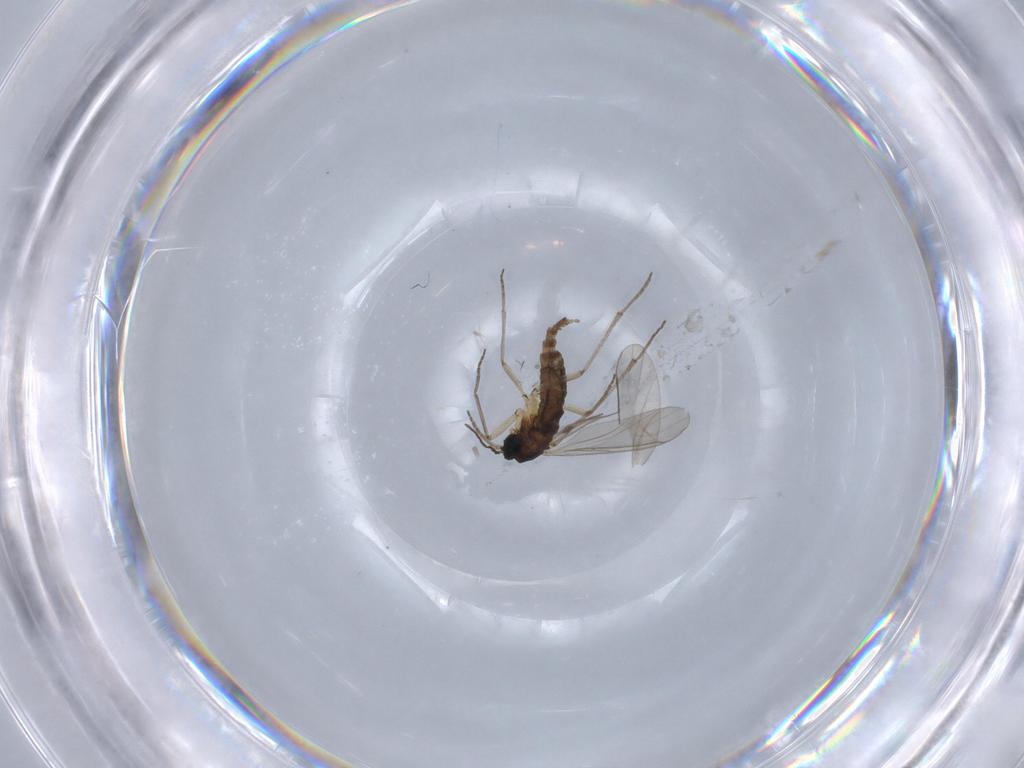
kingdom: Animalia
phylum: Arthropoda
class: Insecta
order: Diptera
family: Sciaridae
